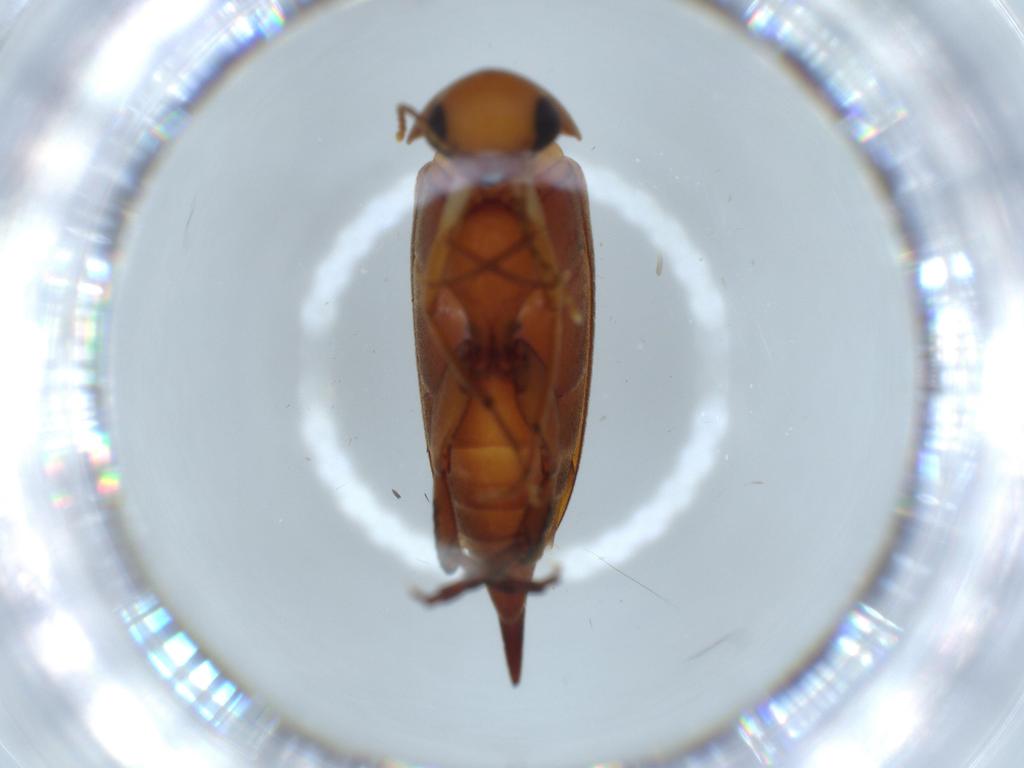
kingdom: Animalia
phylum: Arthropoda
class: Insecta
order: Coleoptera
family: Mordellidae
